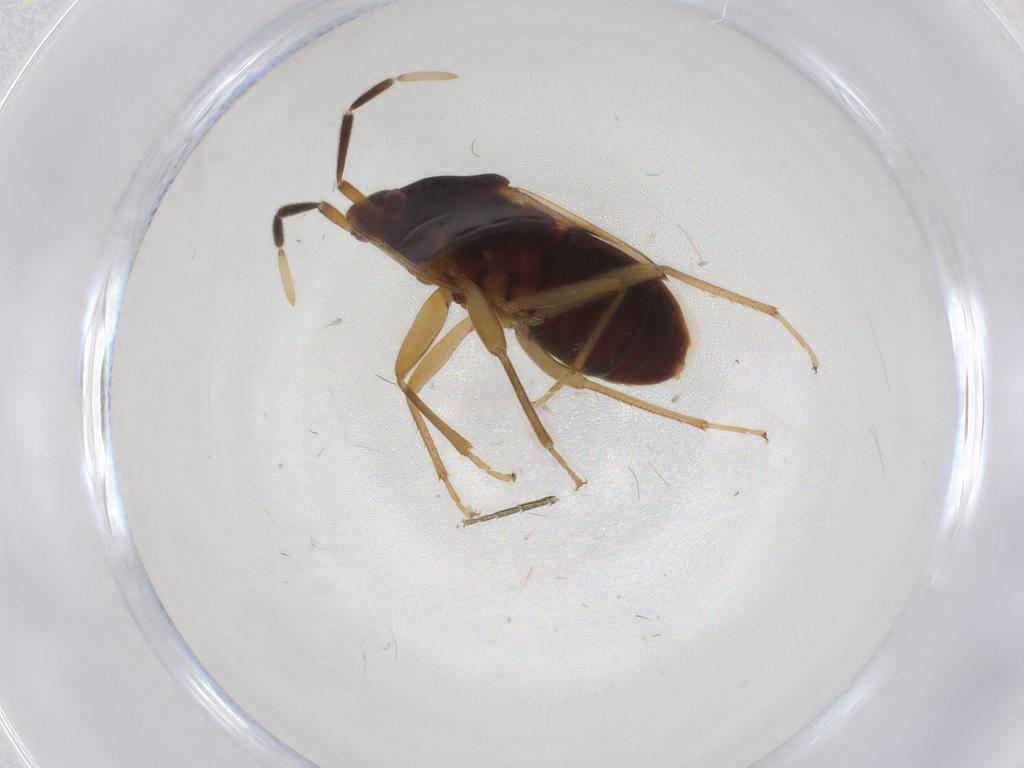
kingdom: Animalia
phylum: Arthropoda
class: Insecta
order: Hemiptera
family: Rhyparochromidae
